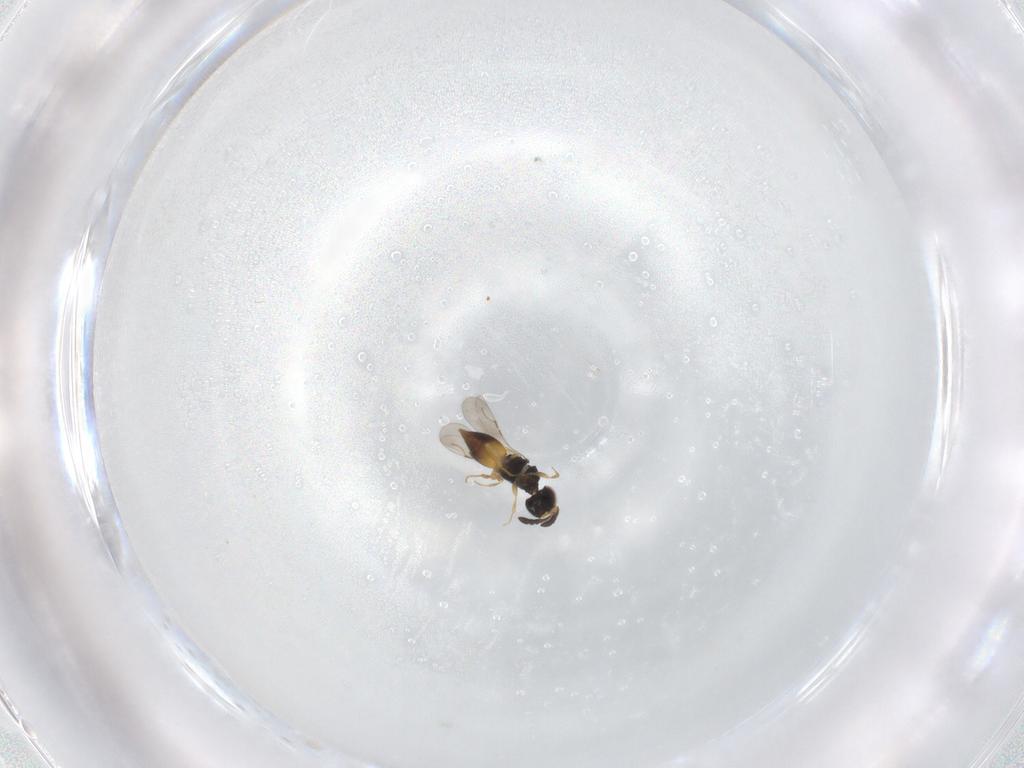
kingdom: Animalia
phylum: Arthropoda
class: Insecta
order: Hymenoptera
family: Mymaridae
